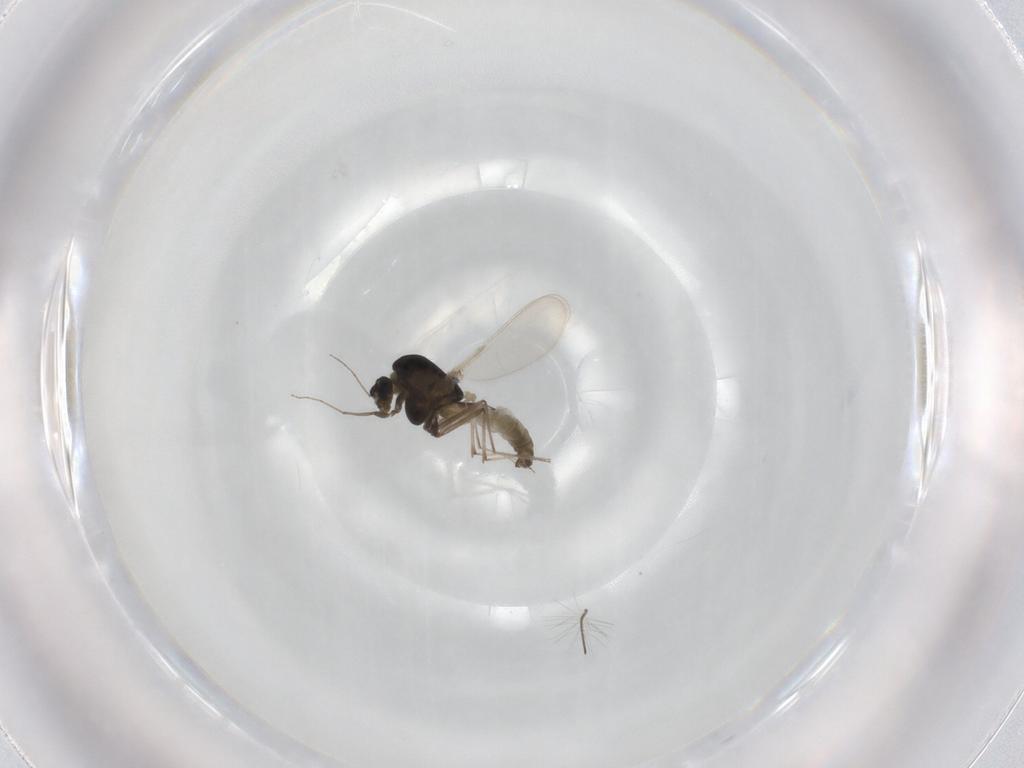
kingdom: Animalia
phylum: Arthropoda
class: Insecta
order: Diptera
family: Chironomidae
